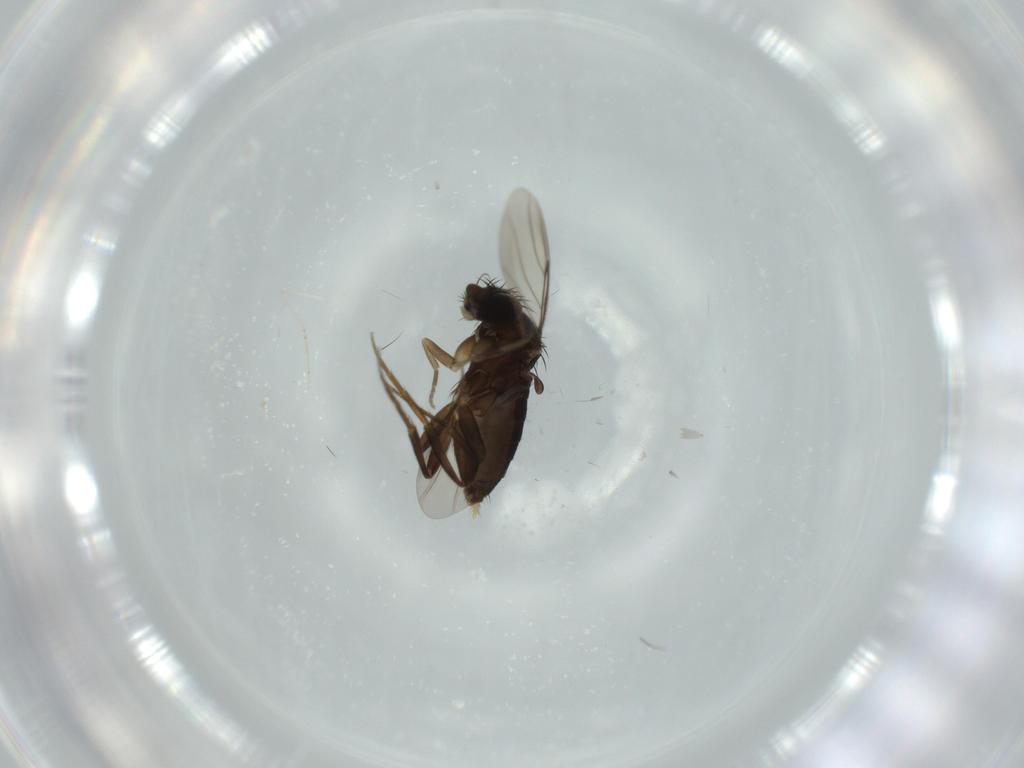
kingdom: Animalia
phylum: Arthropoda
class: Insecta
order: Diptera
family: Cecidomyiidae
